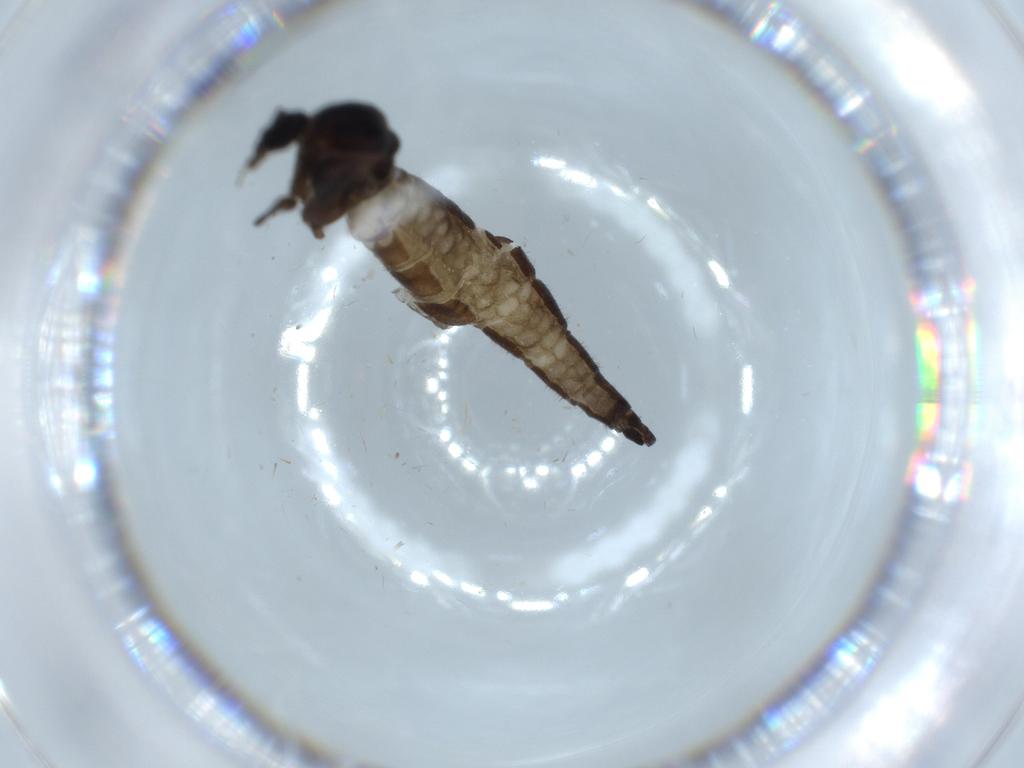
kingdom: Animalia
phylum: Arthropoda
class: Insecta
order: Diptera
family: Sciaridae
